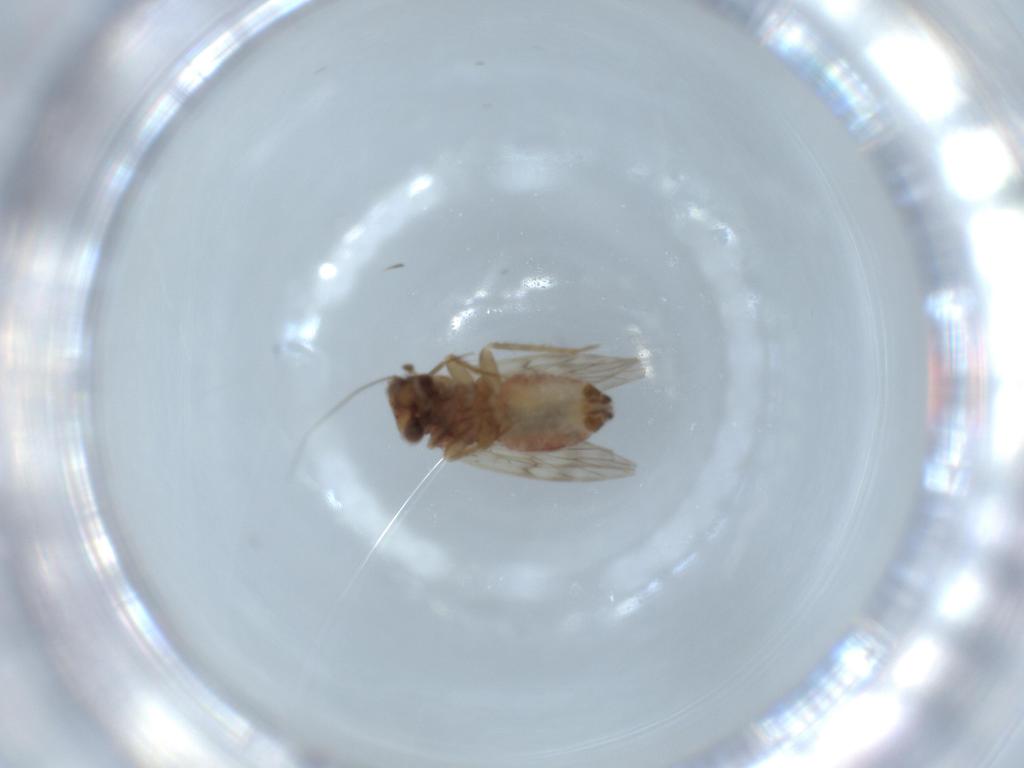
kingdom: Animalia
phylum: Arthropoda
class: Insecta
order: Psocodea
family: Lepidopsocidae
